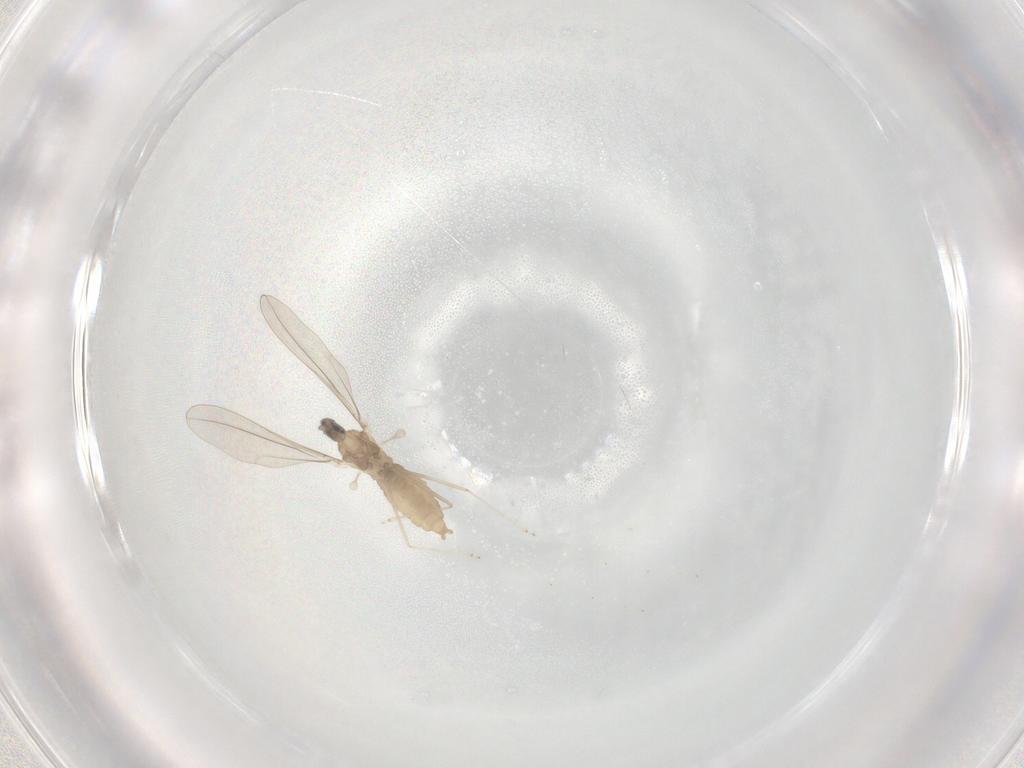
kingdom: Animalia
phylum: Arthropoda
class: Insecta
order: Diptera
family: Cecidomyiidae
